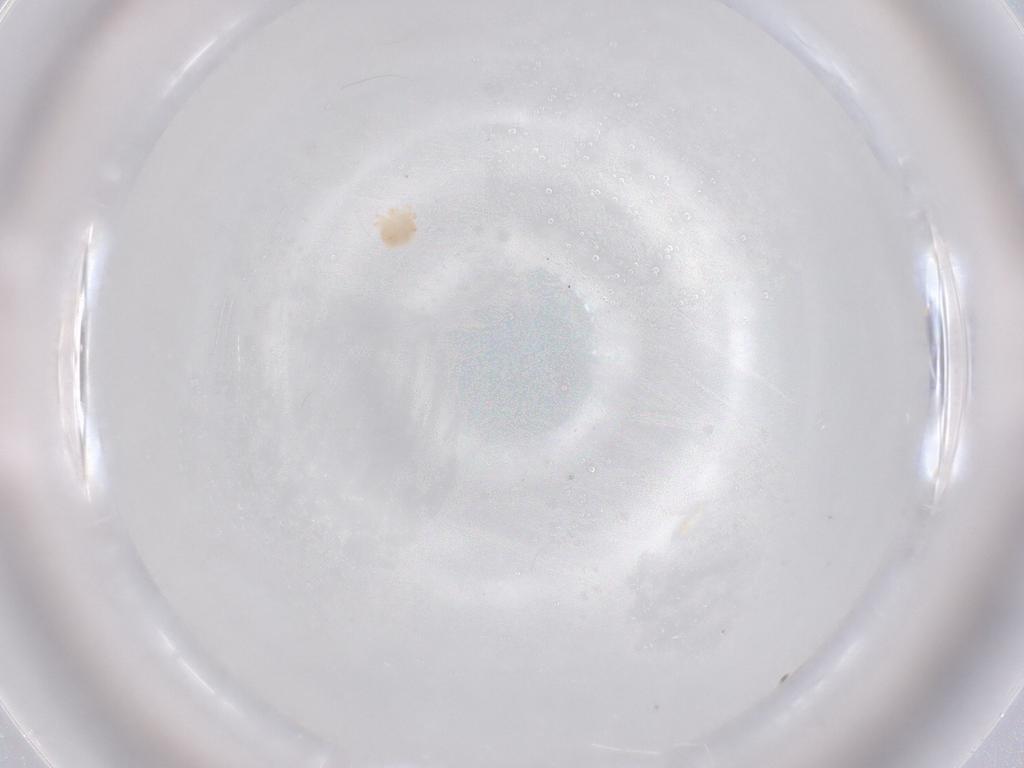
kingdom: Animalia
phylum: Arthropoda
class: Arachnida
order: Trombidiformes
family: Sperchontidae
